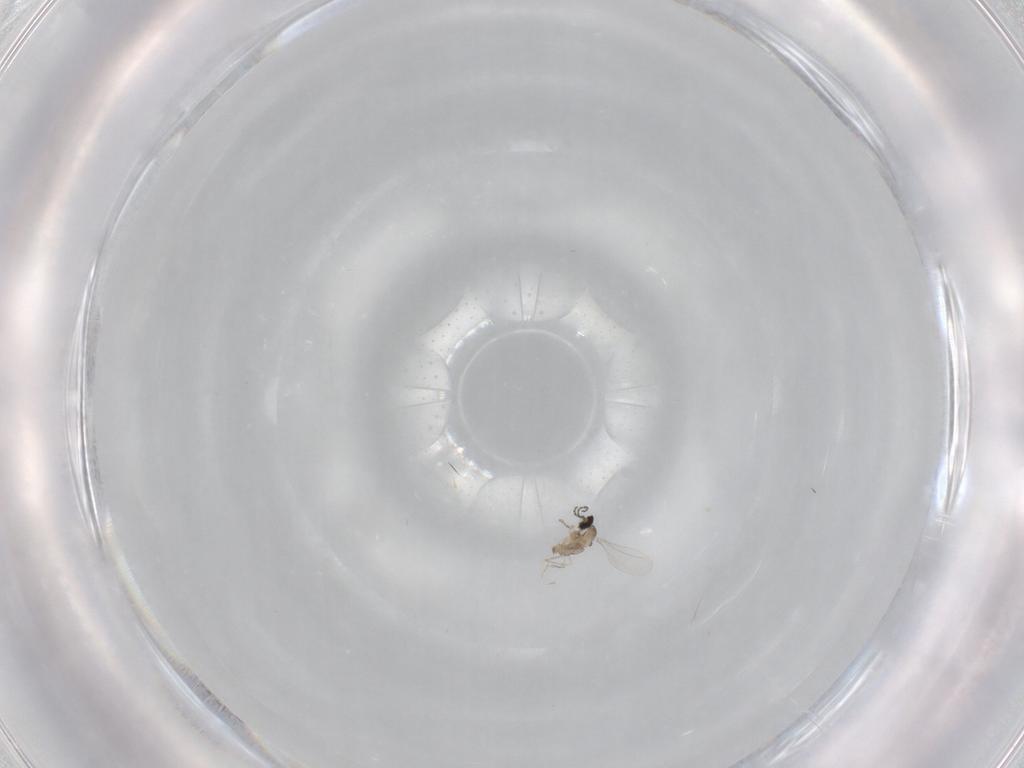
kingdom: Animalia
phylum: Arthropoda
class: Insecta
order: Diptera
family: Cecidomyiidae
